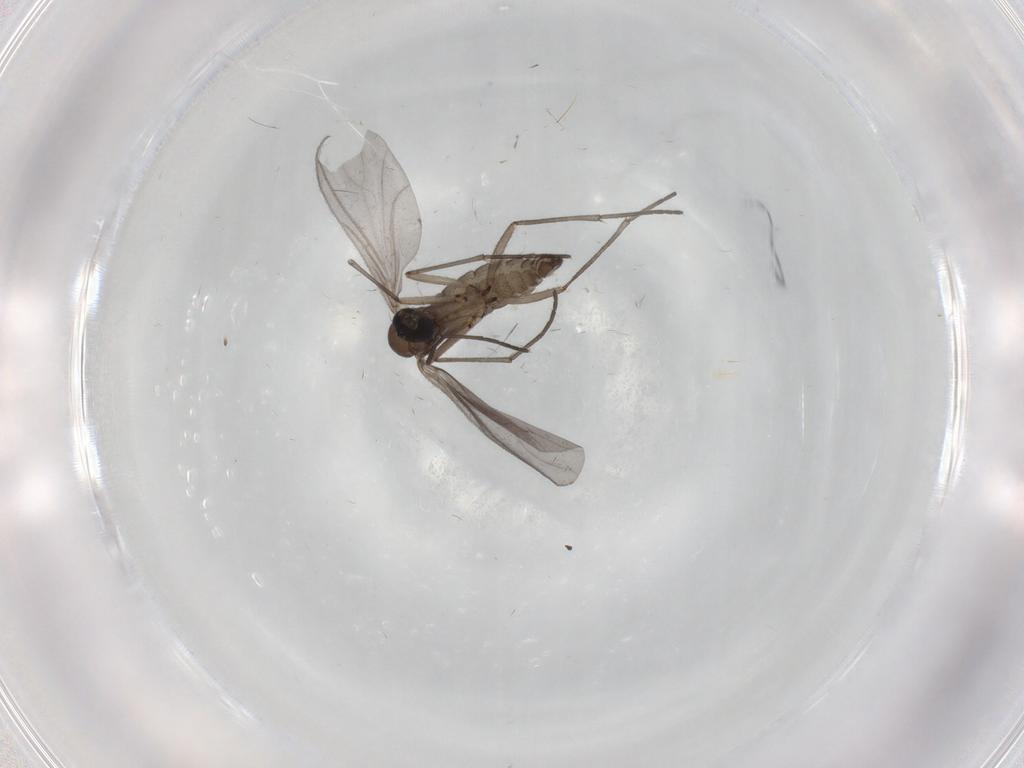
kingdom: Animalia
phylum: Arthropoda
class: Insecta
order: Diptera
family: Sciaridae
